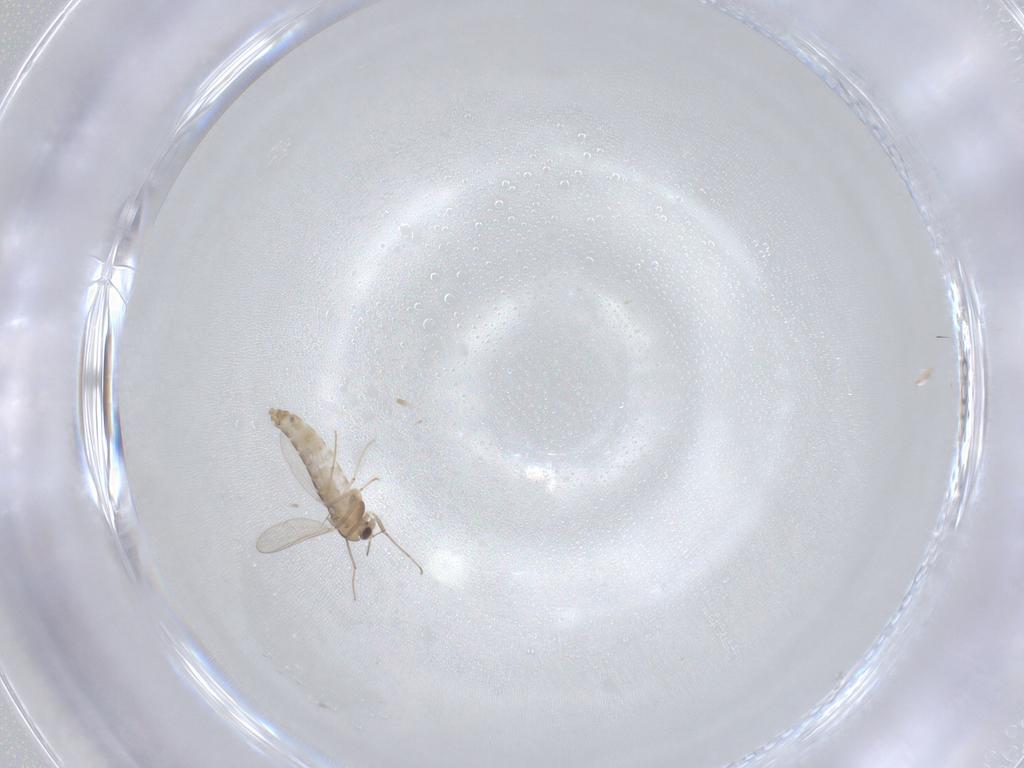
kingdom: Animalia
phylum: Arthropoda
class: Insecta
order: Diptera
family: Chironomidae
